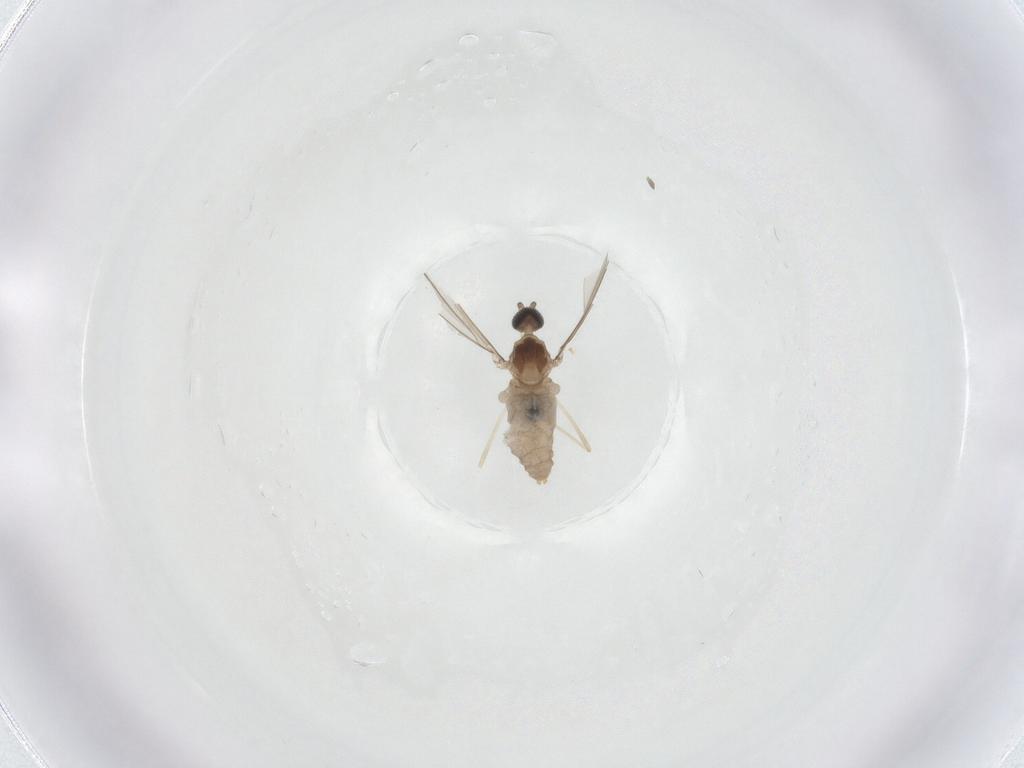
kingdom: Animalia
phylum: Arthropoda
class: Insecta
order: Diptera
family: Cecidomyiidae
